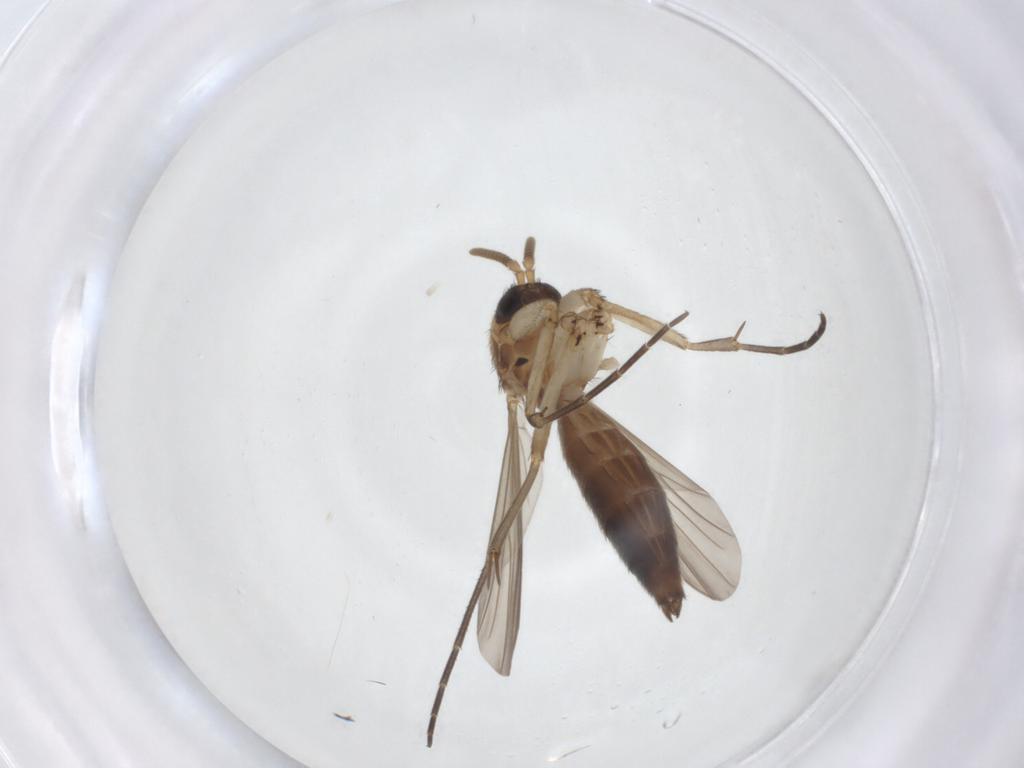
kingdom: Animalia
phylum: Arthropoda
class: Insecta
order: Diptera
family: Mycetophilidae
